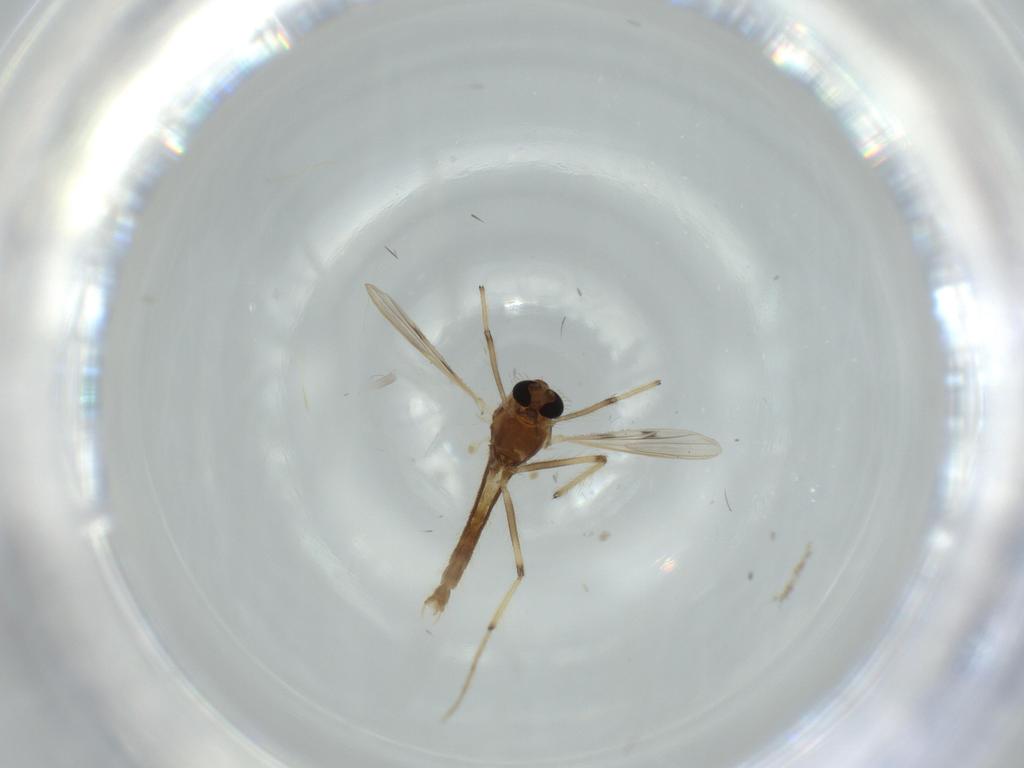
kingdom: Animalia
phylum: Arthropoda
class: Insecta
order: Diptera
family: Chironomidae
